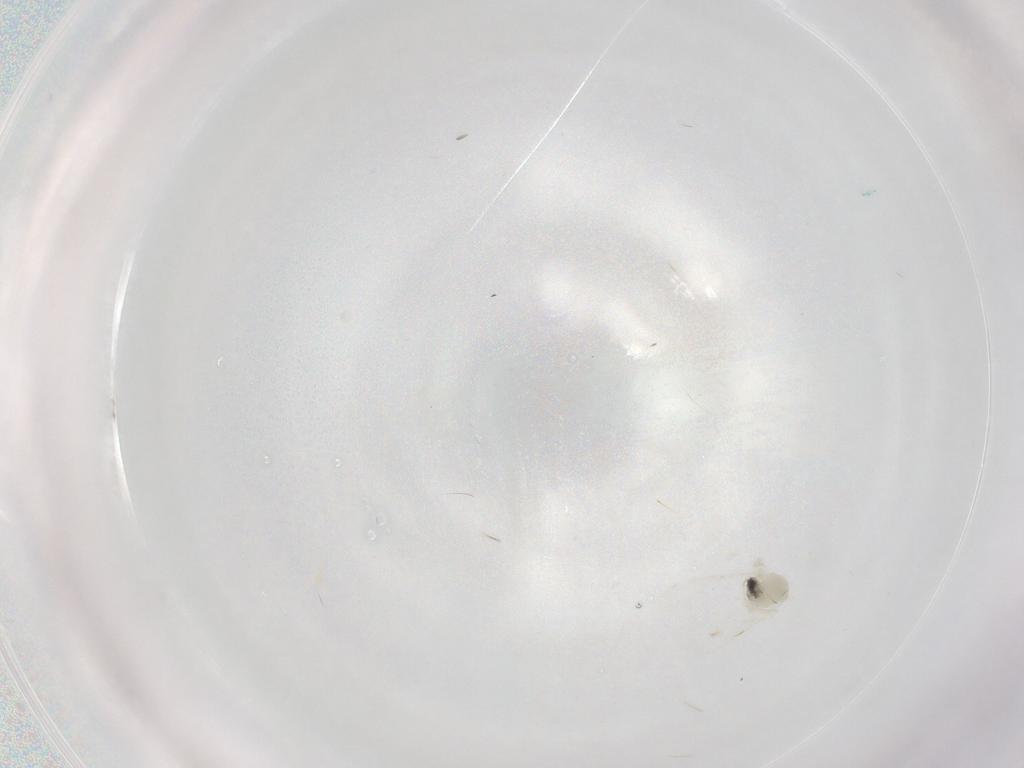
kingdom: Animalia
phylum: Arthropoda
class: Insecta
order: Hemiptera
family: Aleyrodidae
